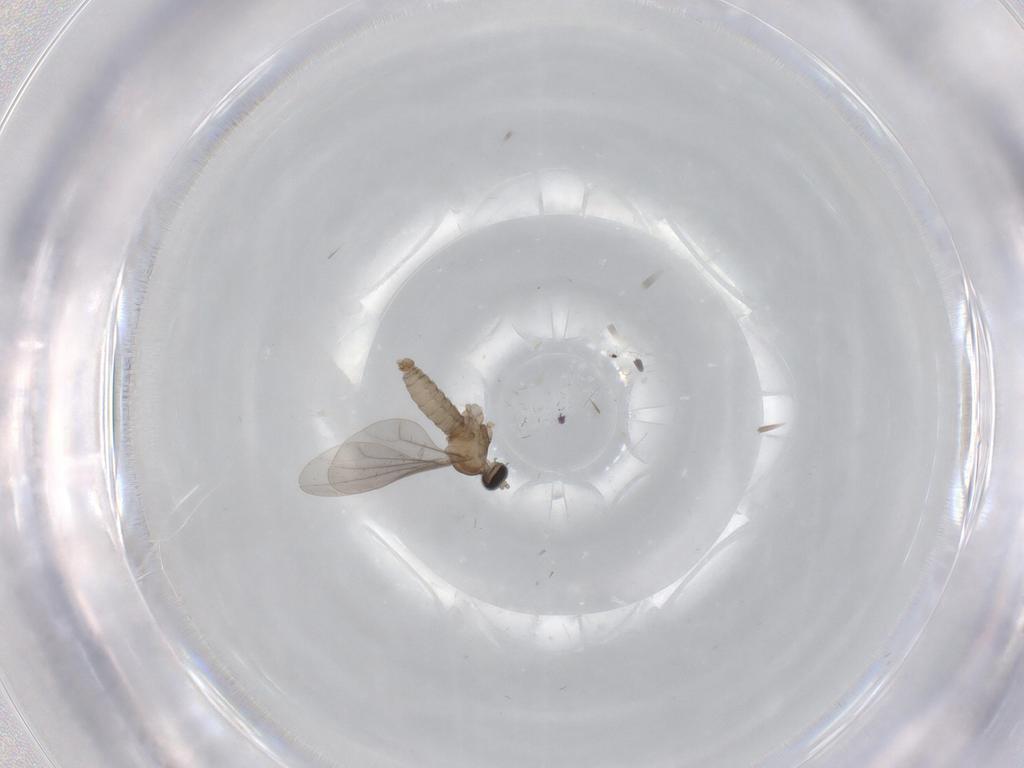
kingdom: Animalia
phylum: Arthropoda
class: Insecta
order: Diptera
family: Cecidomyiidae
